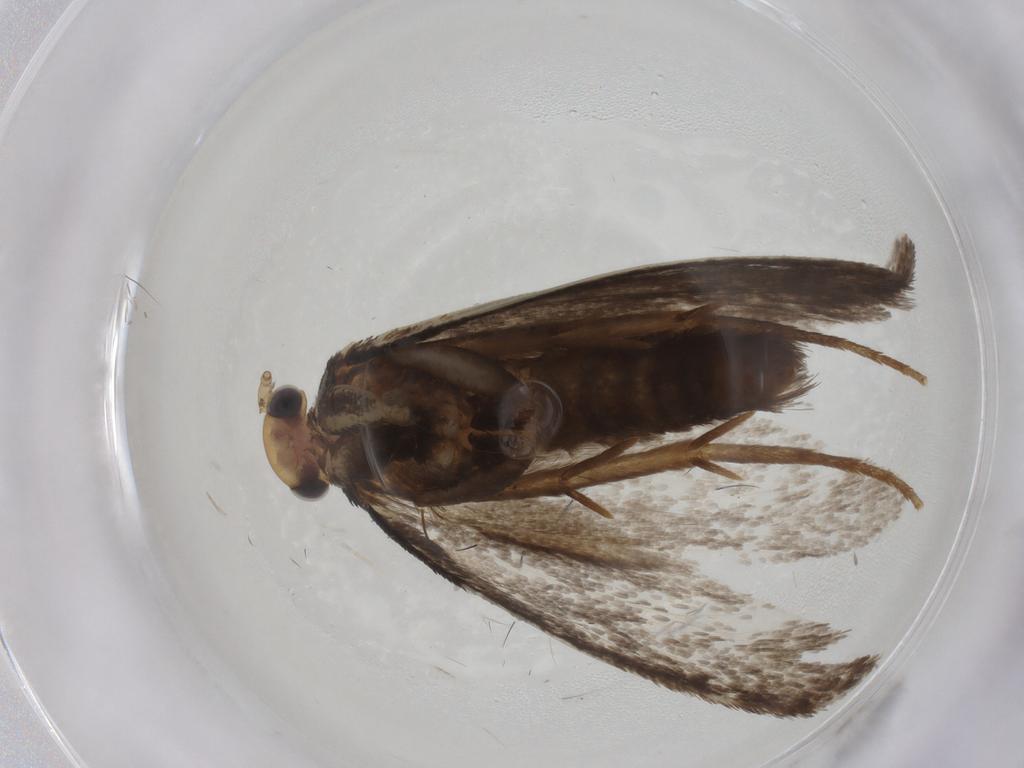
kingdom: Animalia
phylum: Arthropoda
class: Insecta
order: Lepidoptera
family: Tineidae
